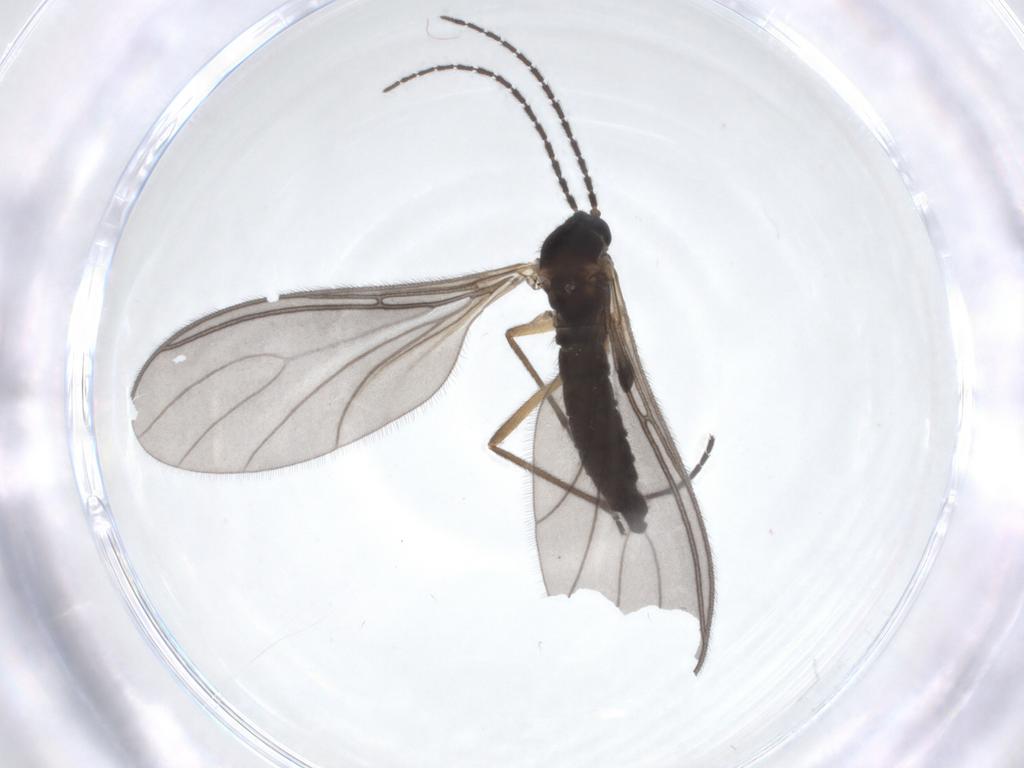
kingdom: Animalia
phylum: Arthropoda
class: Insecta
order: Diptera
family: Sciaridae
